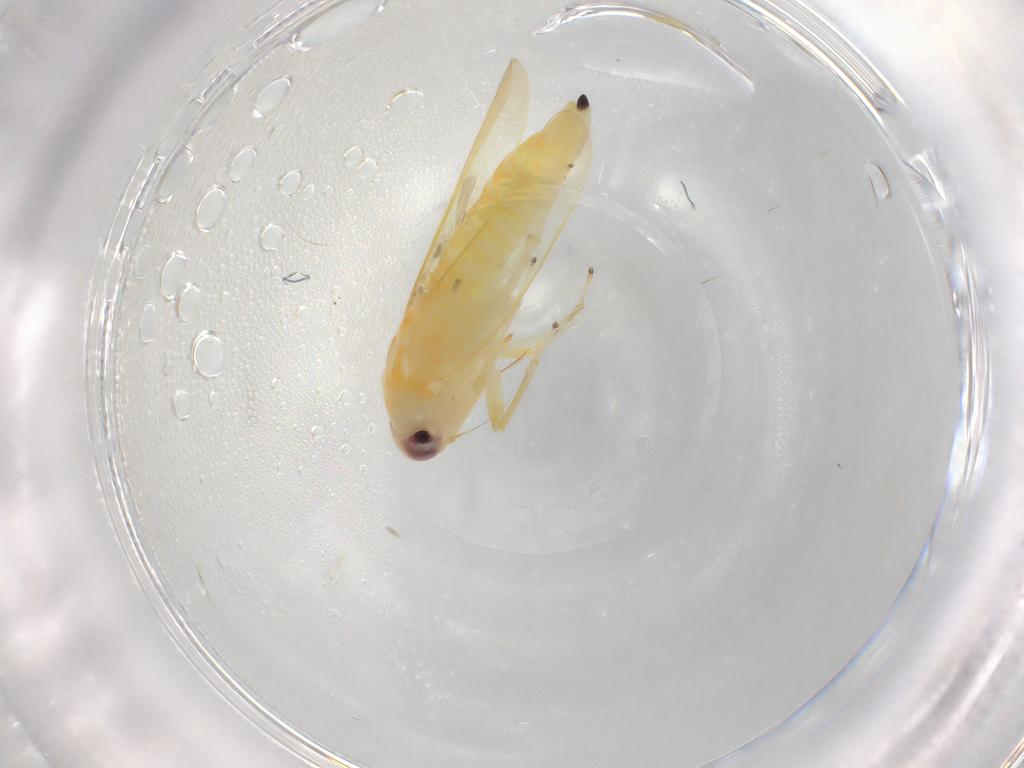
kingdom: Animalia
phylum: Arthropoda
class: Insecta
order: Hemiptera
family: Cicadellidae
